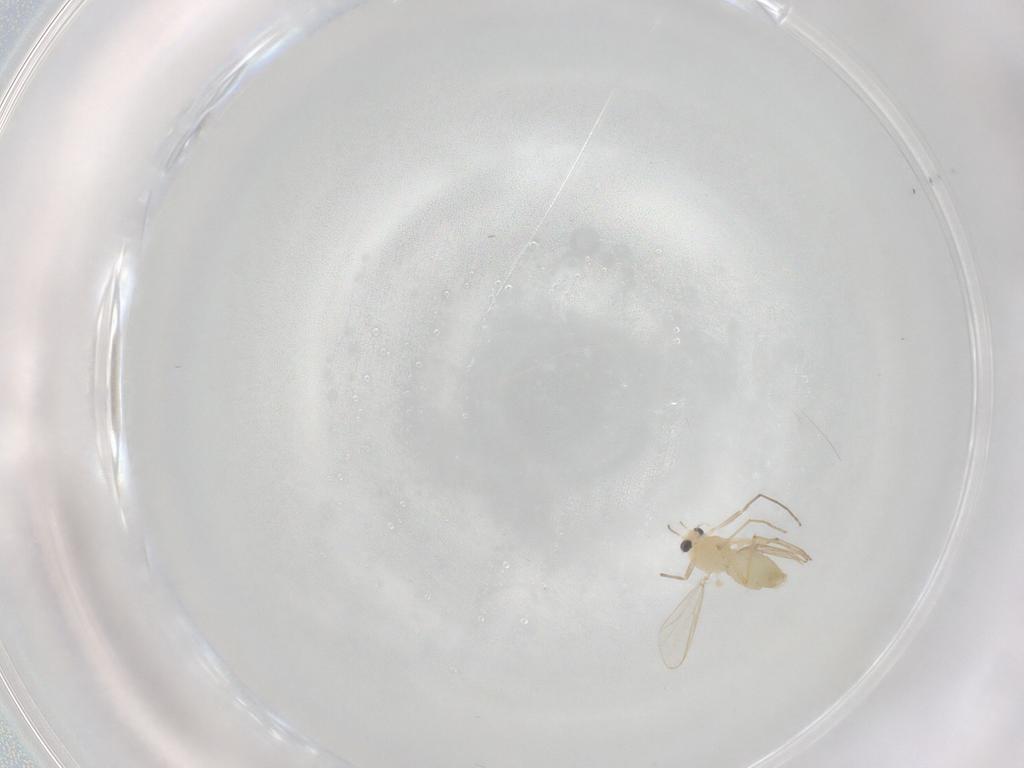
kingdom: Animalia
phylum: Arthropoda
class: Insecta
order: Diptera
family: Chironomidae
